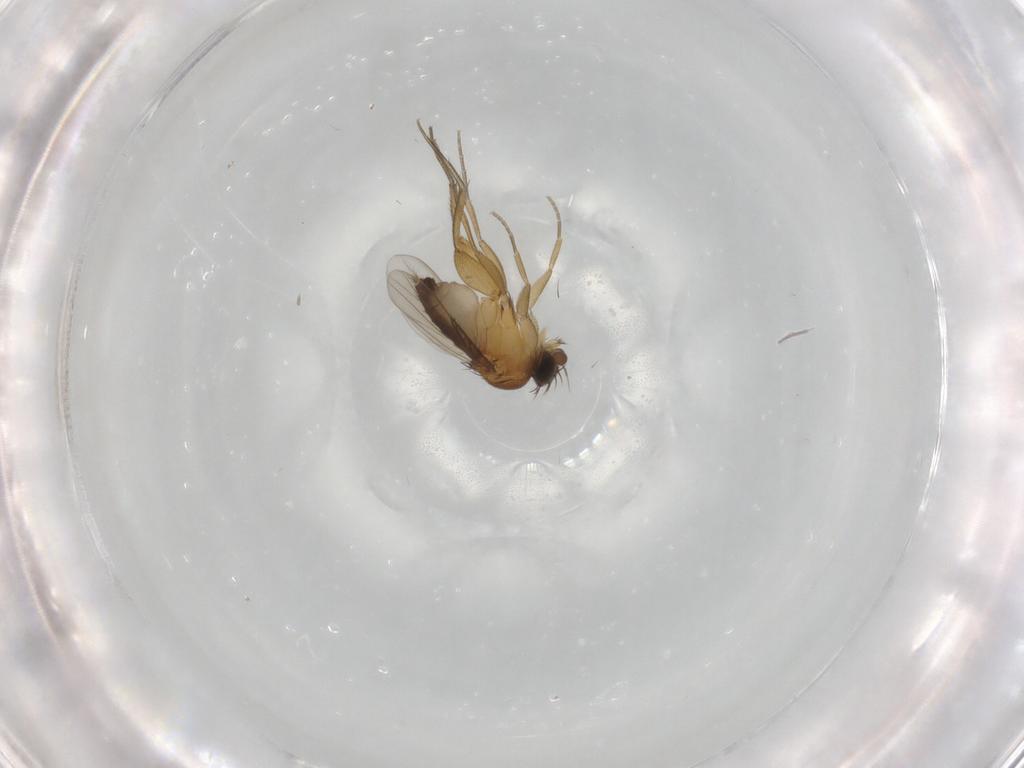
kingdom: Animalia
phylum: Arthropoda
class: Insecta
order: Diptera
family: Phoridae
